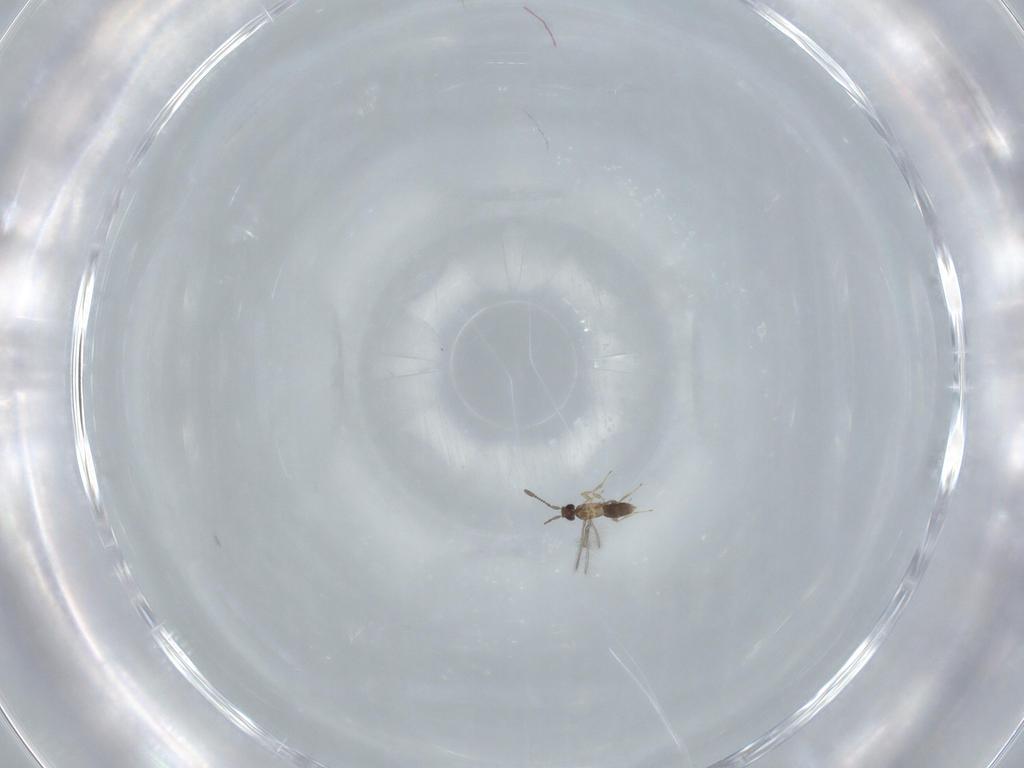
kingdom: Animalia
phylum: Arthropoda
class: Insecta
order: Hymenoptera
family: Mymaridae
